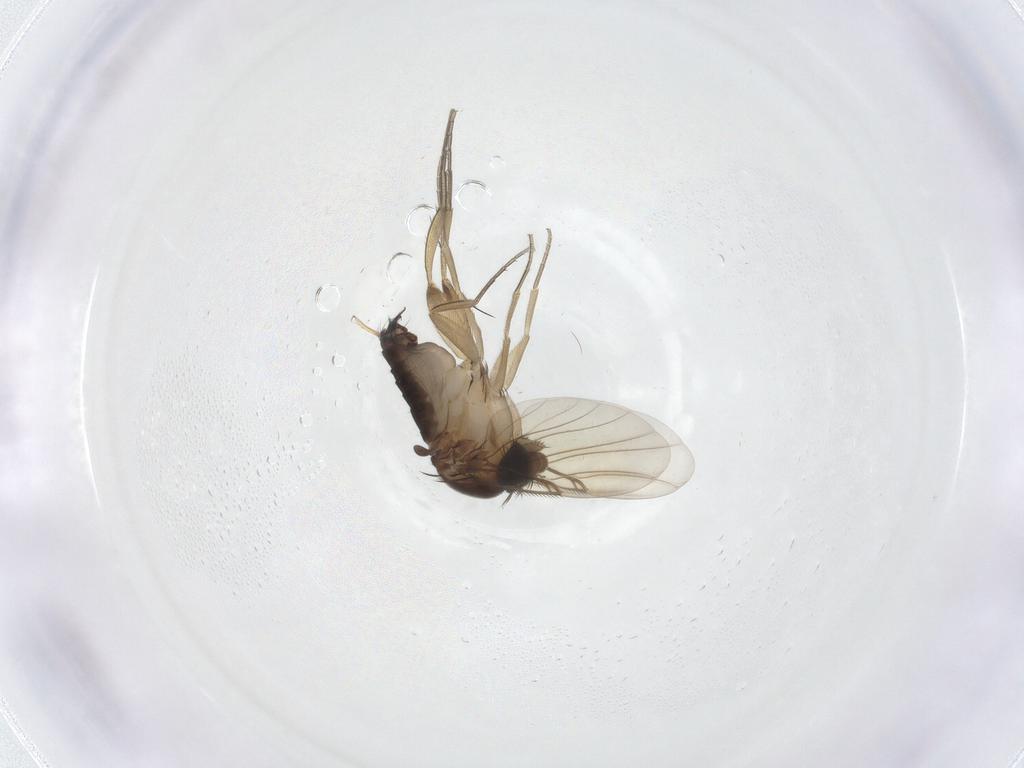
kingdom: Animalia
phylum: Arthropoda
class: Insecta
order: Diptera
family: Phoridae
